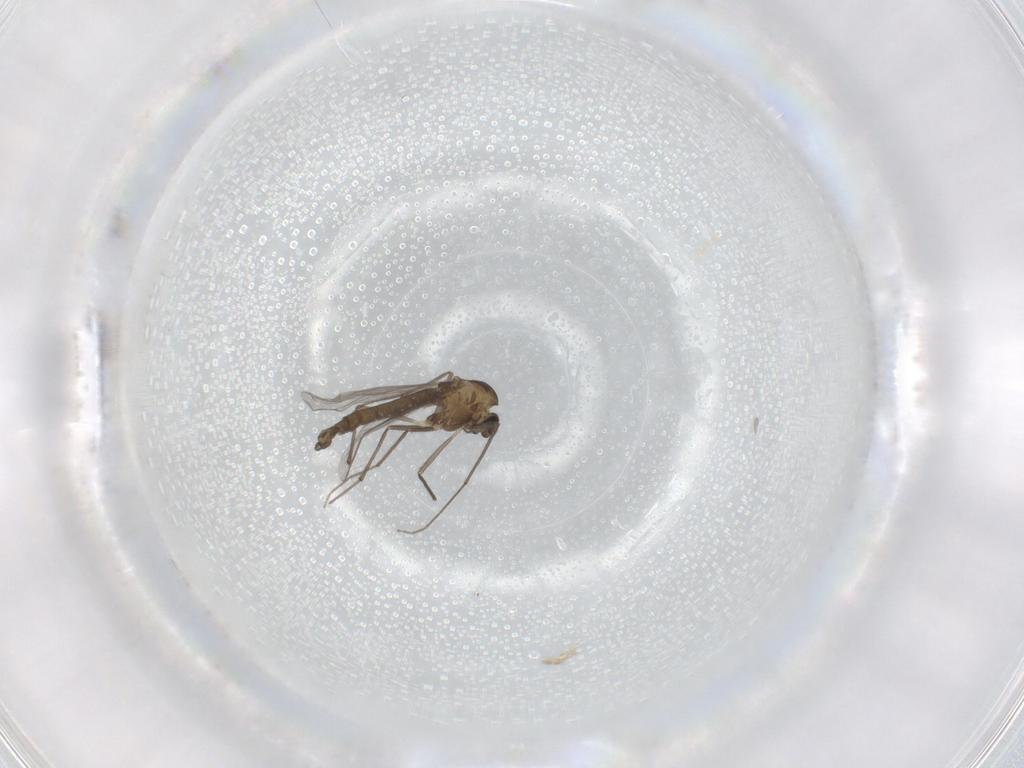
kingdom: Animalia
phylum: Arthropoda
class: Insecta
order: Diptera
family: Chironomidae
